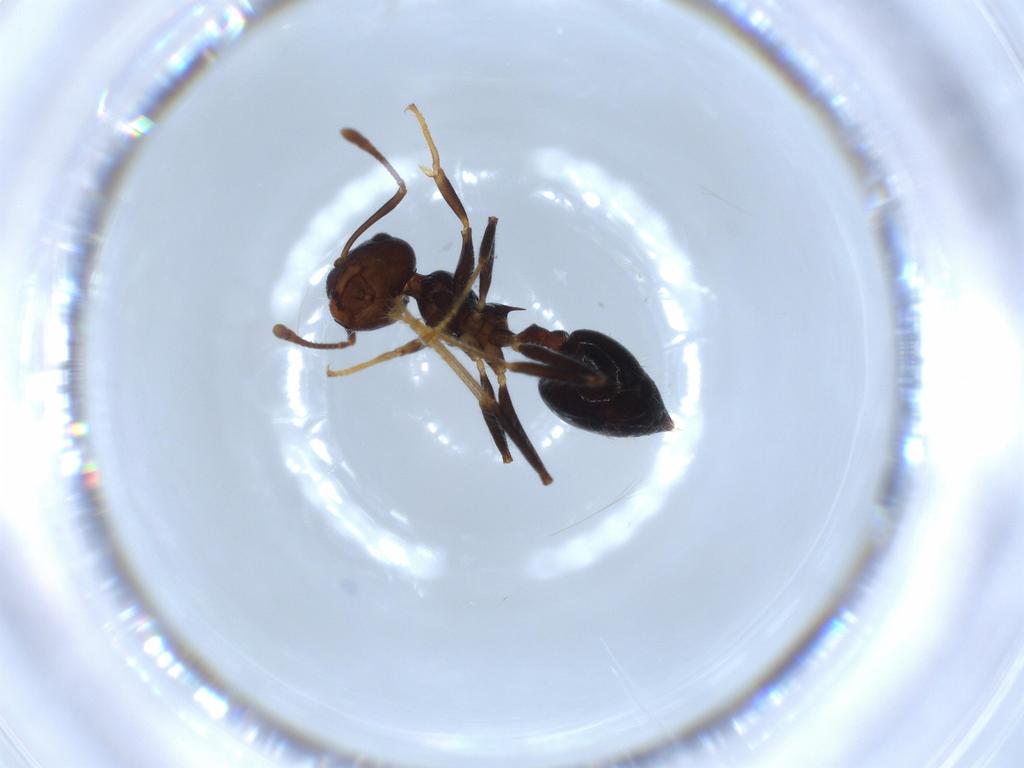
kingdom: Animalia
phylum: Arthropoda
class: Insecta
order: Hymenoptera
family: Formicidae
